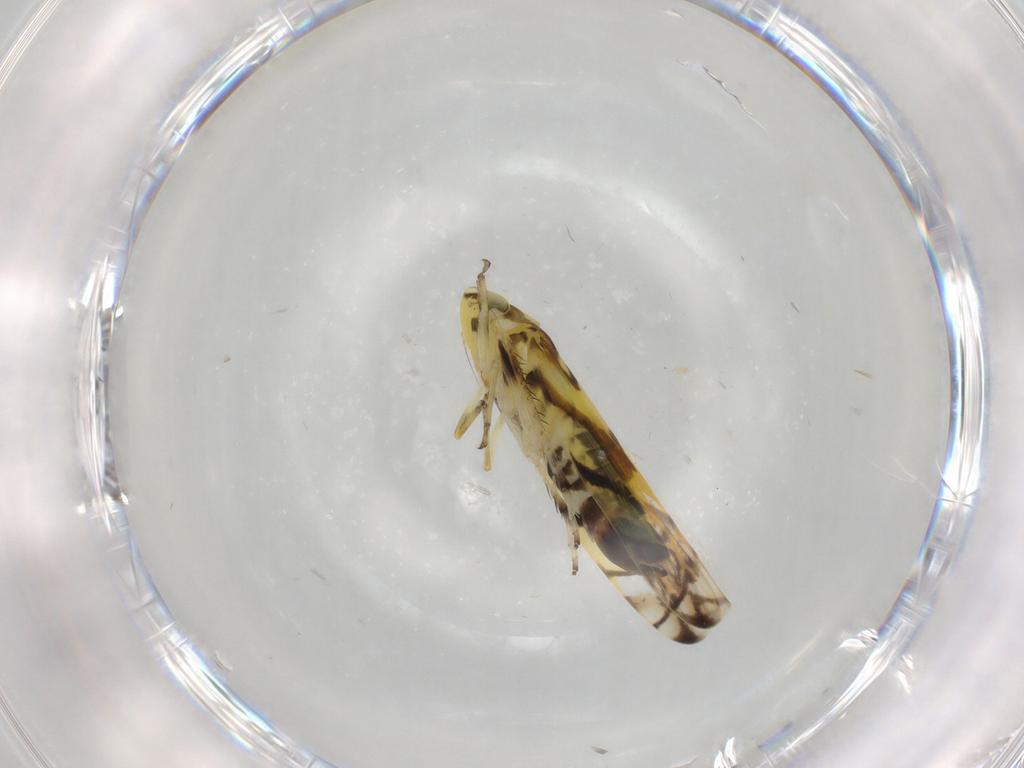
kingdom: Animalia
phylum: Arthropoda
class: Insecta
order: Hemiptera
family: Cicadellidae
